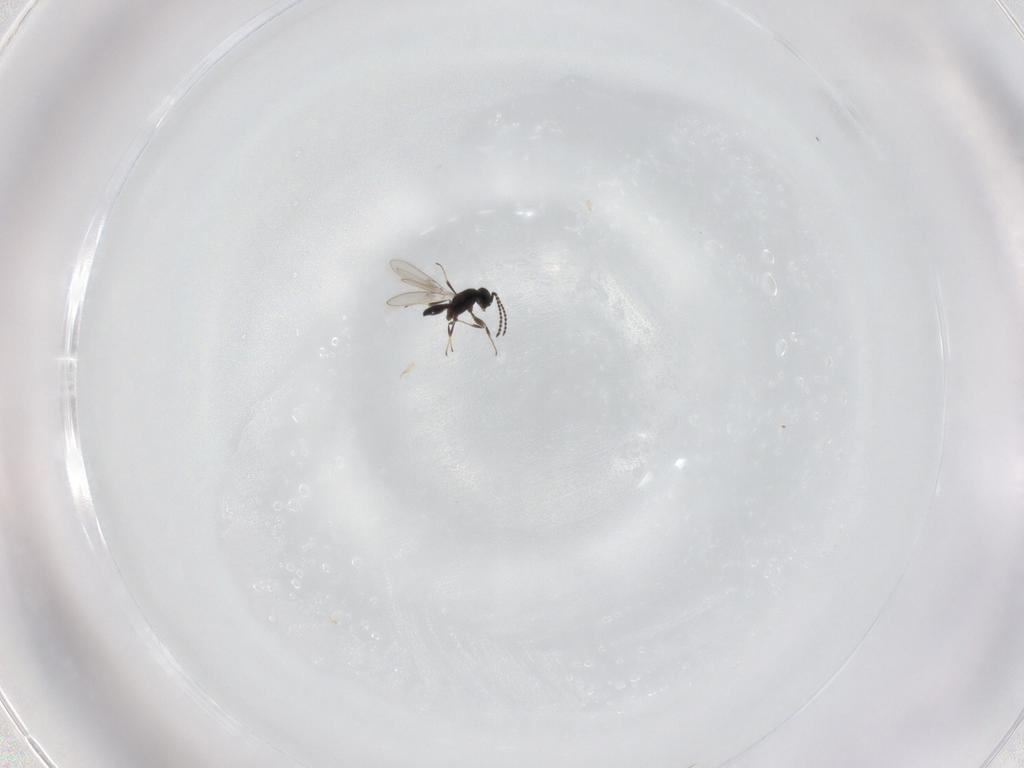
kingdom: Animalia
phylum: Arthropoda
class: Insecta
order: Hymenoptera
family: Scelionidae
